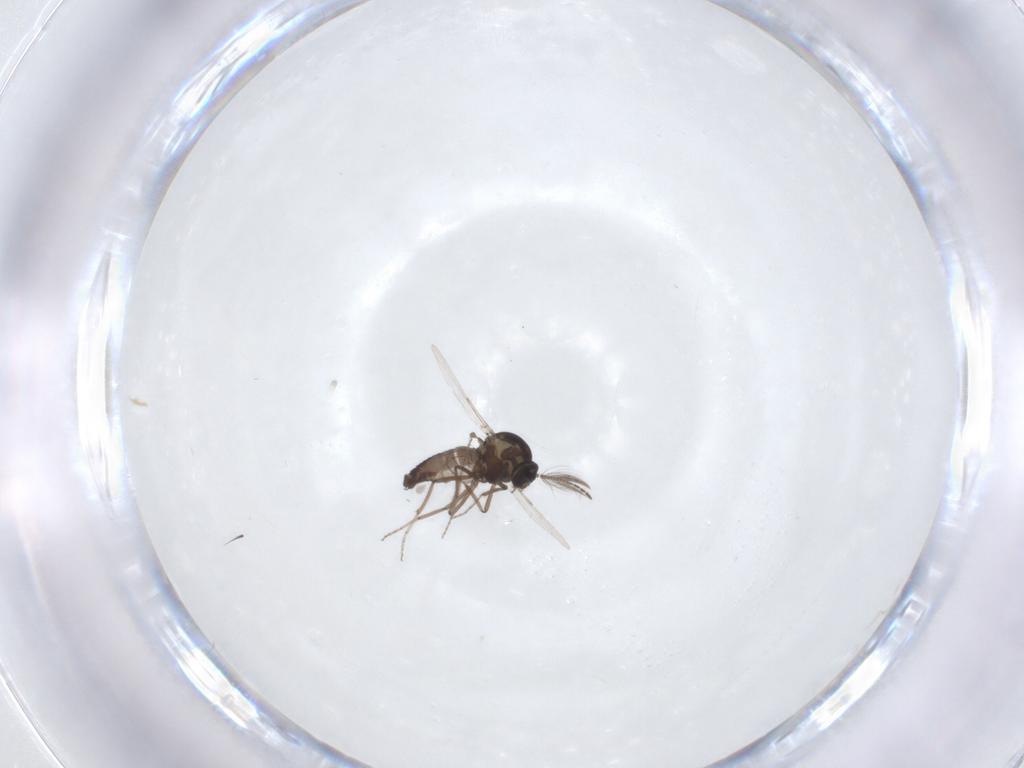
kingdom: Animalia
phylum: Arthropoda
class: Insecta
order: Diptera
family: Ceratopogonidae
